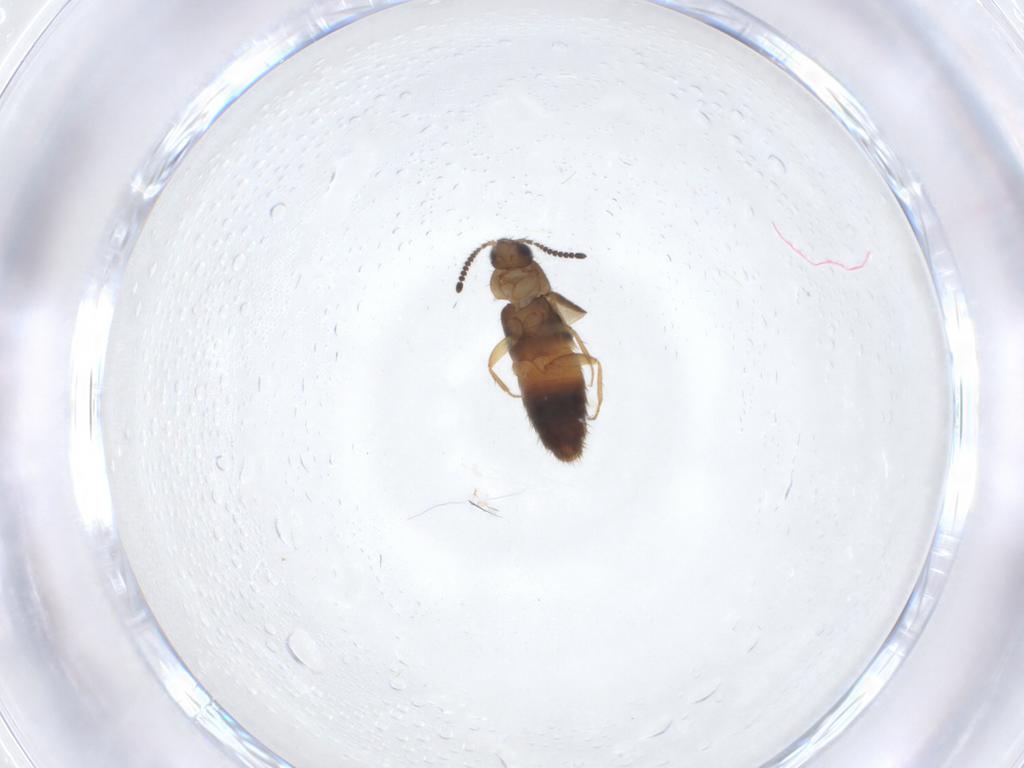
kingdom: Animalia
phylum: Arthropoda
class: Insecta
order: Coleoptera
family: Staphylinidae
